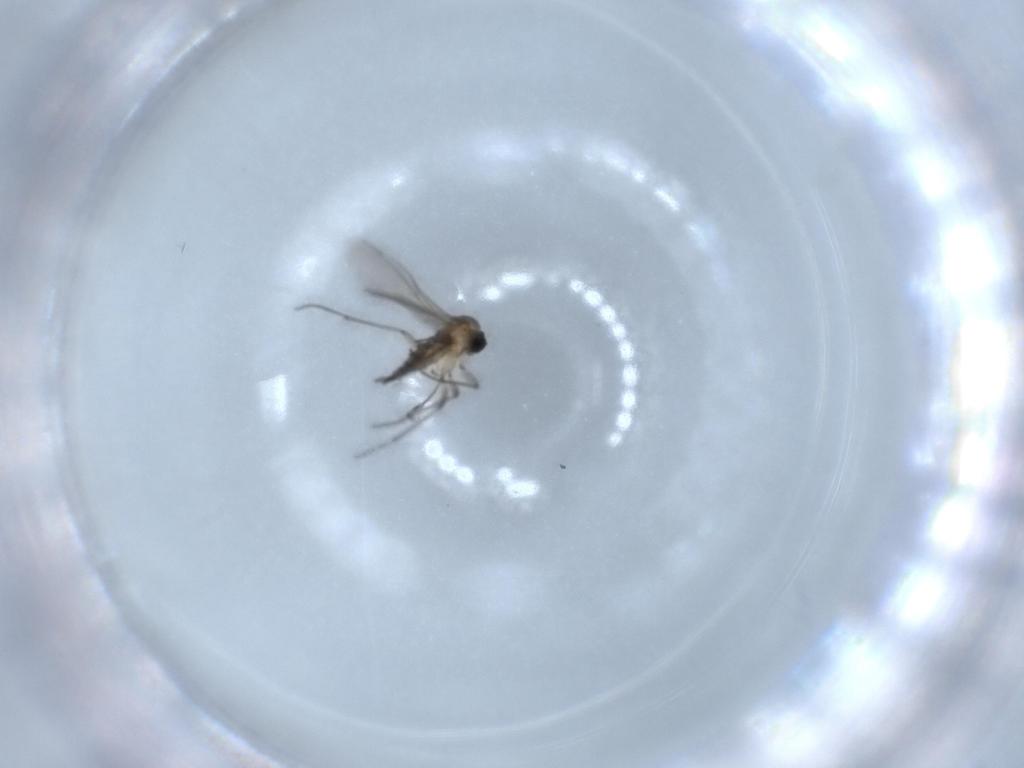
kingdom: Animalia
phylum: Arthropoda
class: Insecta
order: Diptera
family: Sciaridae
